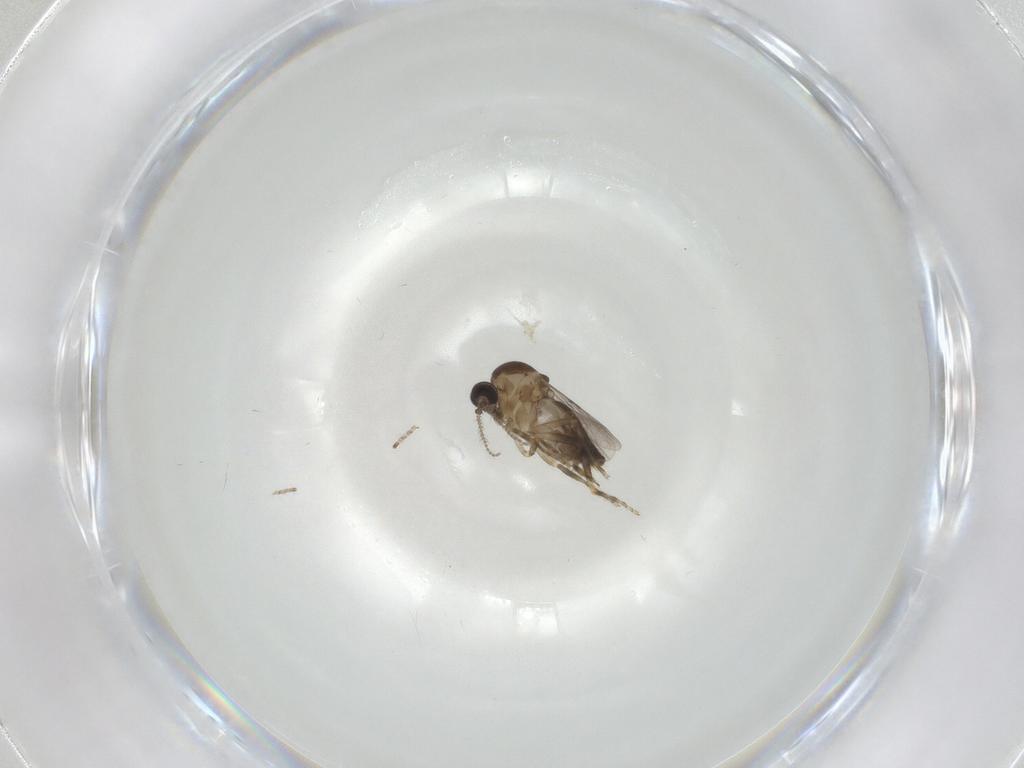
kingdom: Animalia
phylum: Arthropoda
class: Insecta
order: Diptera
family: Ceratopogonidae
